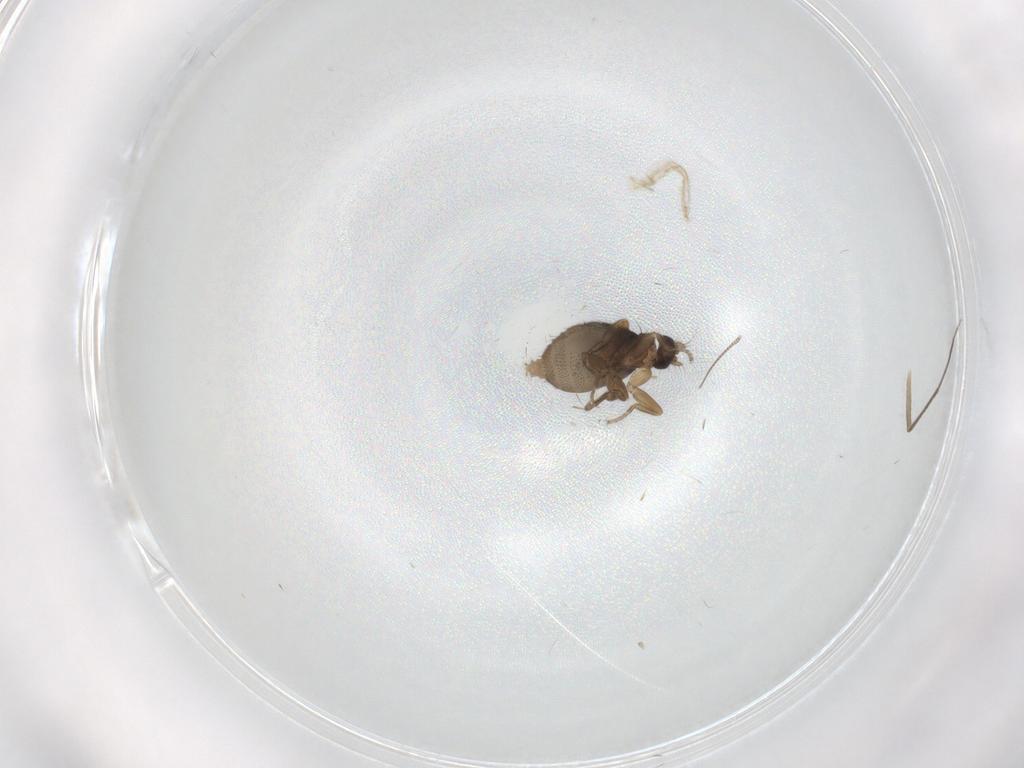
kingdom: Animalia
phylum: Arthropoda
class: Insecta
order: Diptera
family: Phoridae
